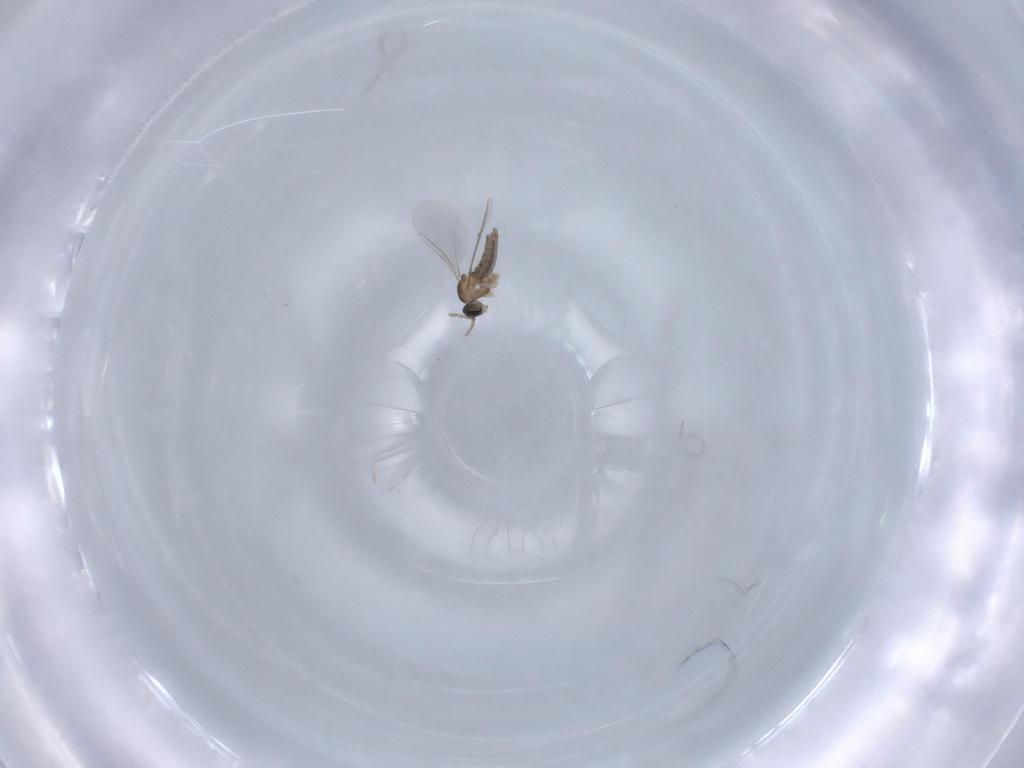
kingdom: Animalia
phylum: Arthropoda
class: Insecta
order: Diptera
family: Cecidomyiidae
